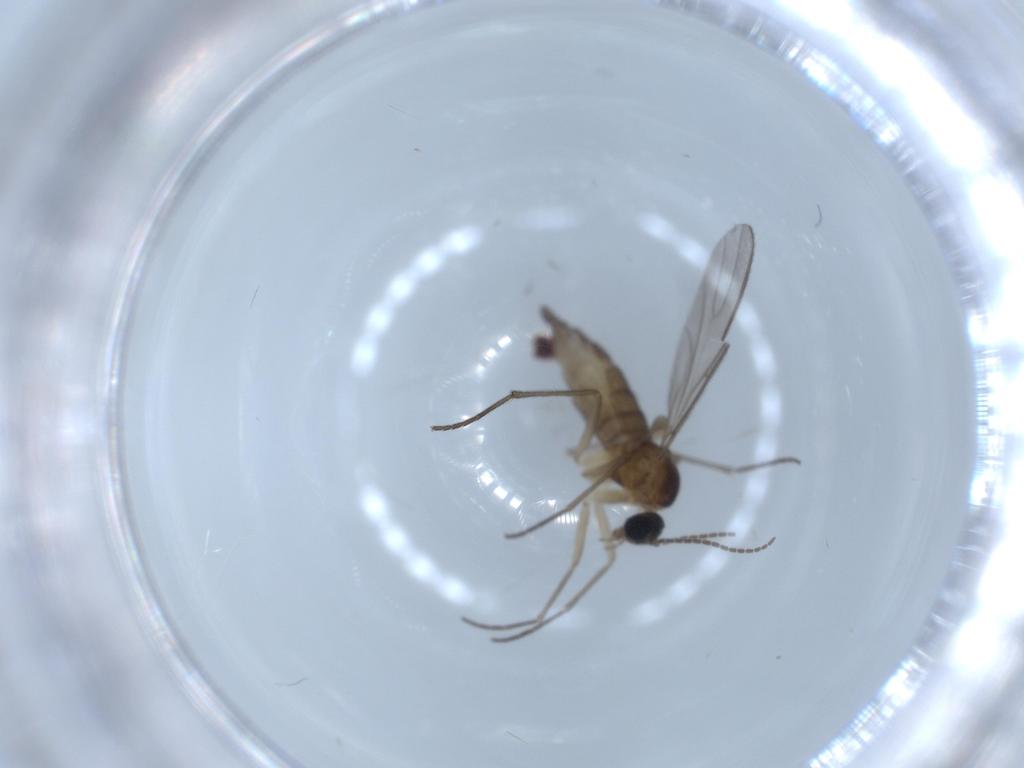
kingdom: Animalia
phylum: Arthropoda
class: Insecta
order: Diptera
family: Sciaridae
